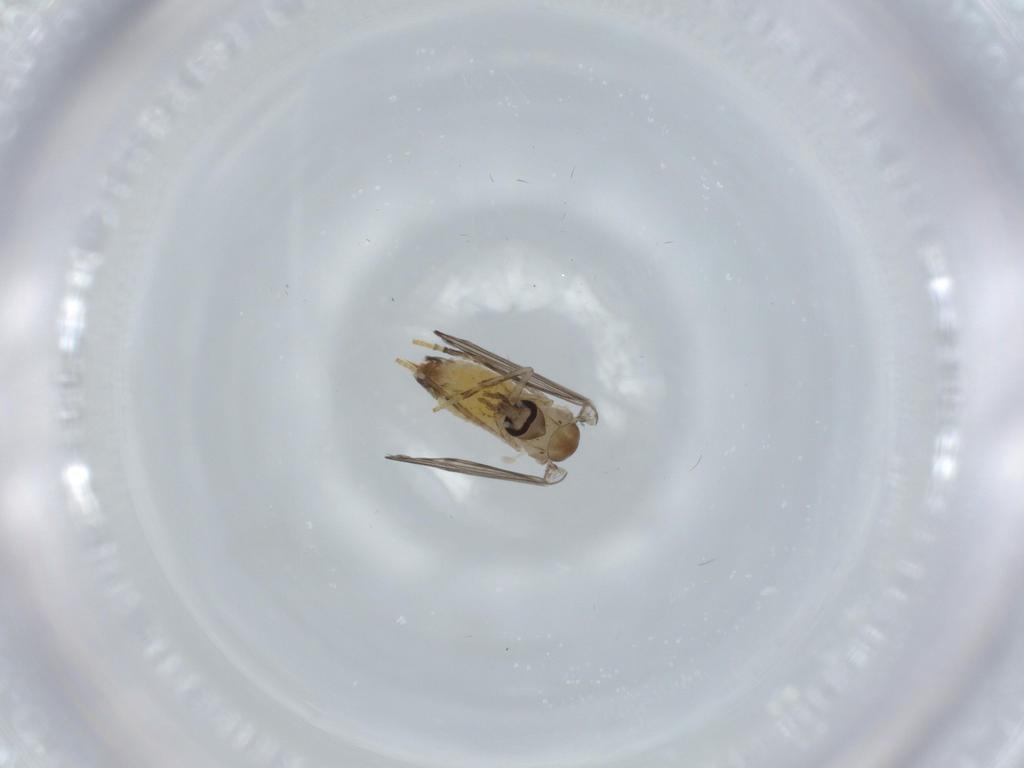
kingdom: Animalia
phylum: Arthropoda
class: Insecta
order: Diptera
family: Psychodidae
